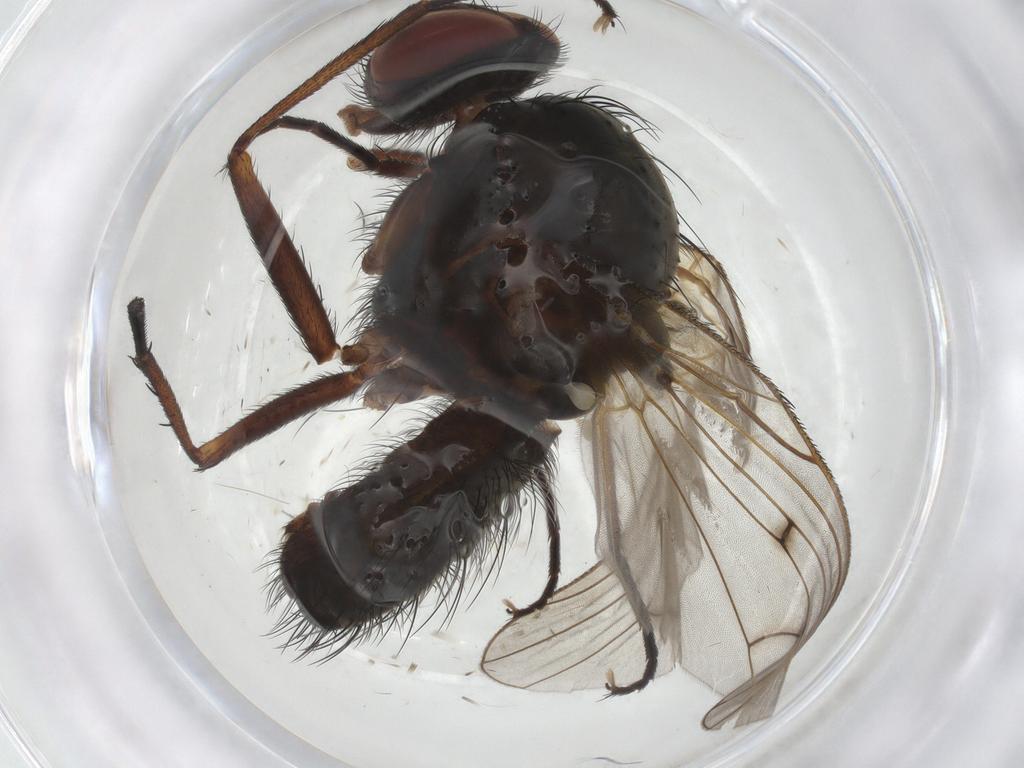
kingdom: Animalia
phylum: Arthropoda
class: Insecta
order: Diptera
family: Anthomyiidae
